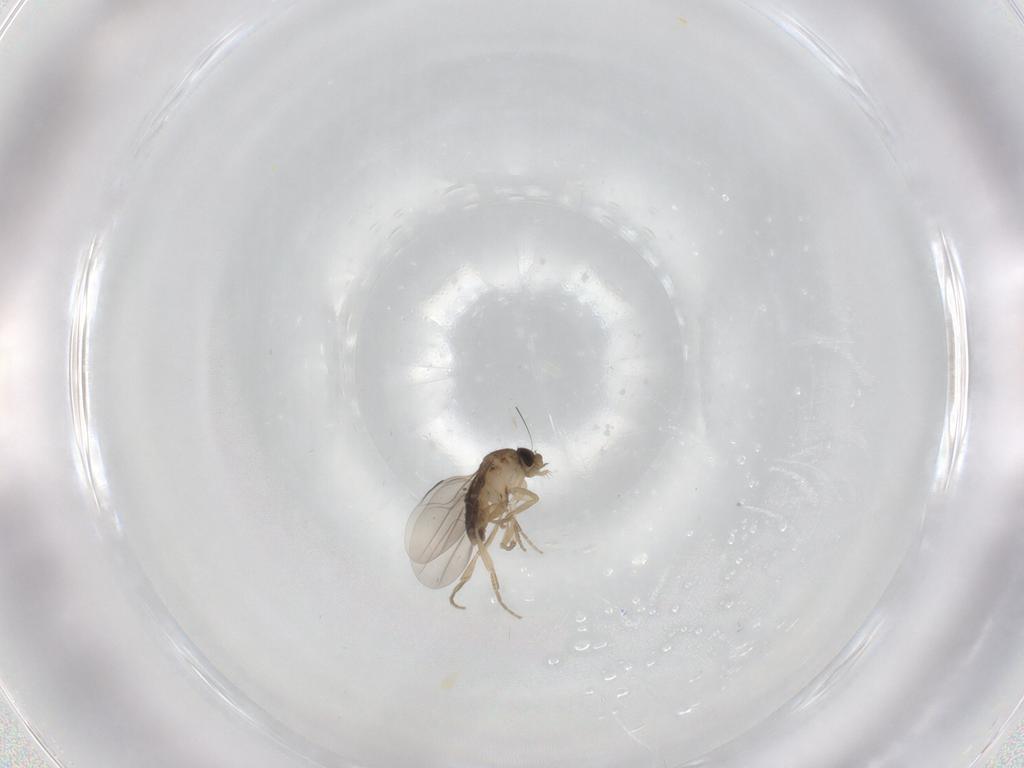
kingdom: Animalia
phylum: Arthropoda
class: Insecta
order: Diptera
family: Phoridae
